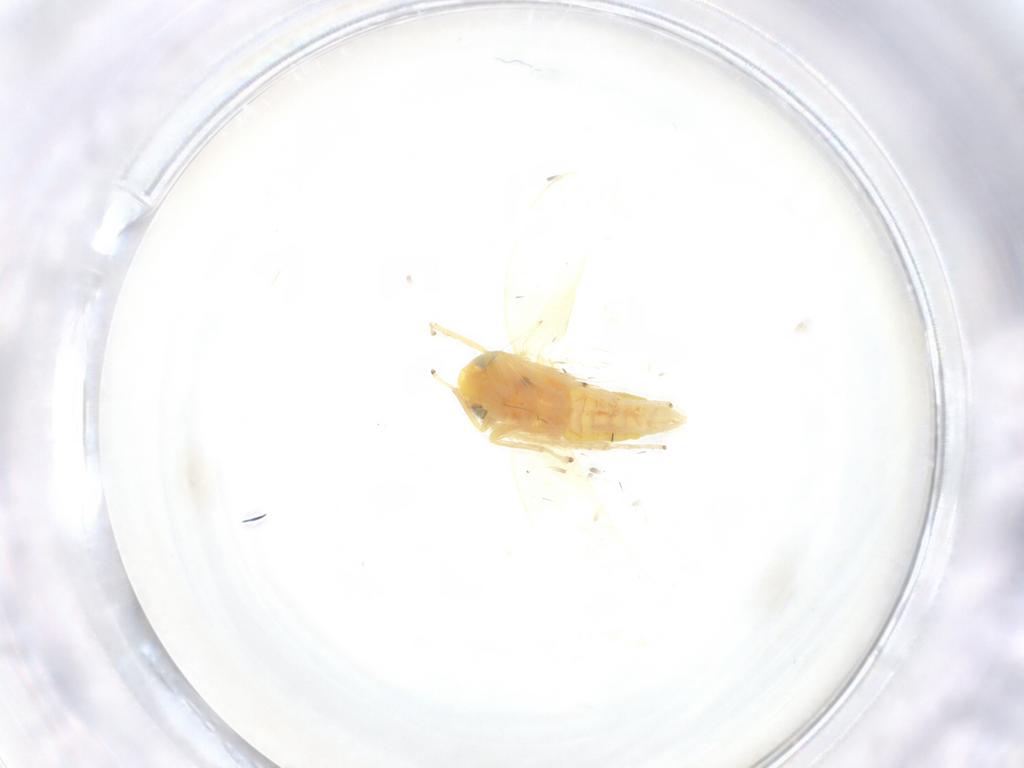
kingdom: Animalia
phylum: Arthropoda
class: Insecta
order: Hemiptera
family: Cicadellidae
